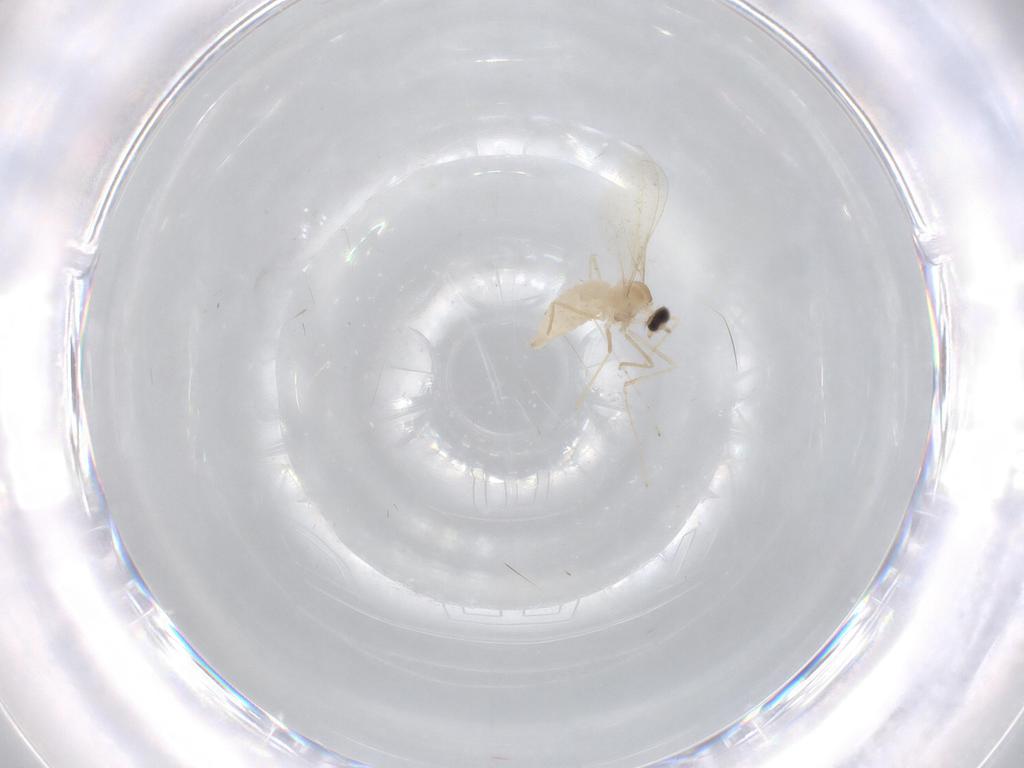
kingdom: Animalia
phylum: Arthropoda
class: Insecta
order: Diptera
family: Cecidomyiidae
